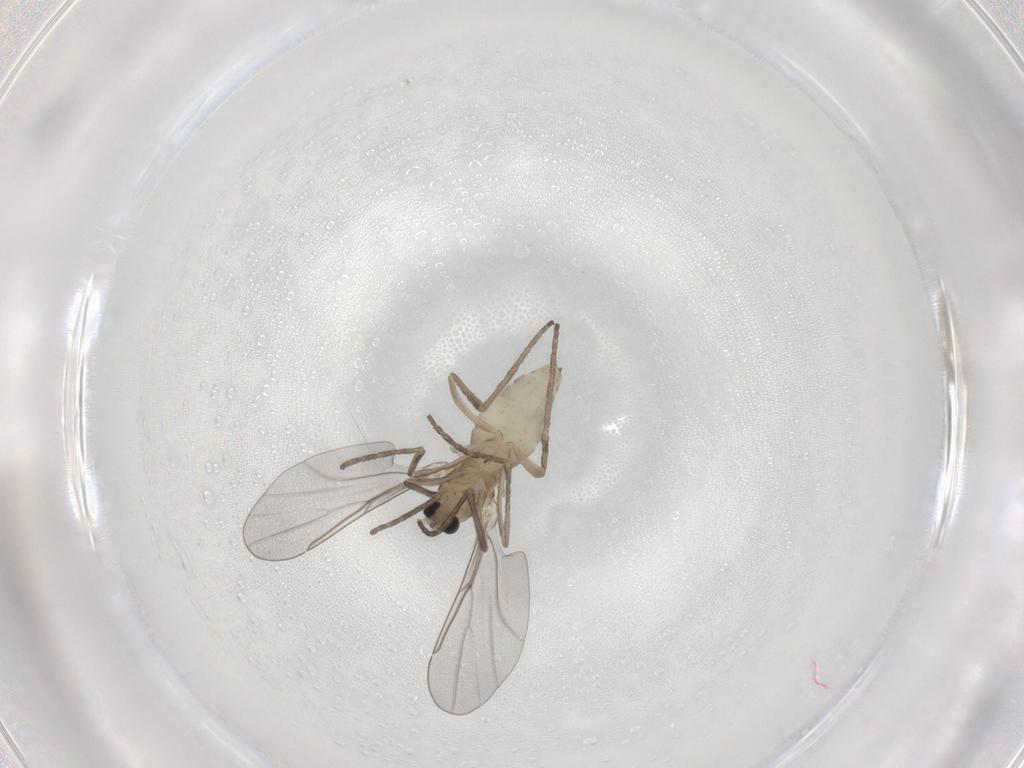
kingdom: Animalia
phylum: Arthropoda
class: Insecta
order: Diptera
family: Cecidomyiidae
